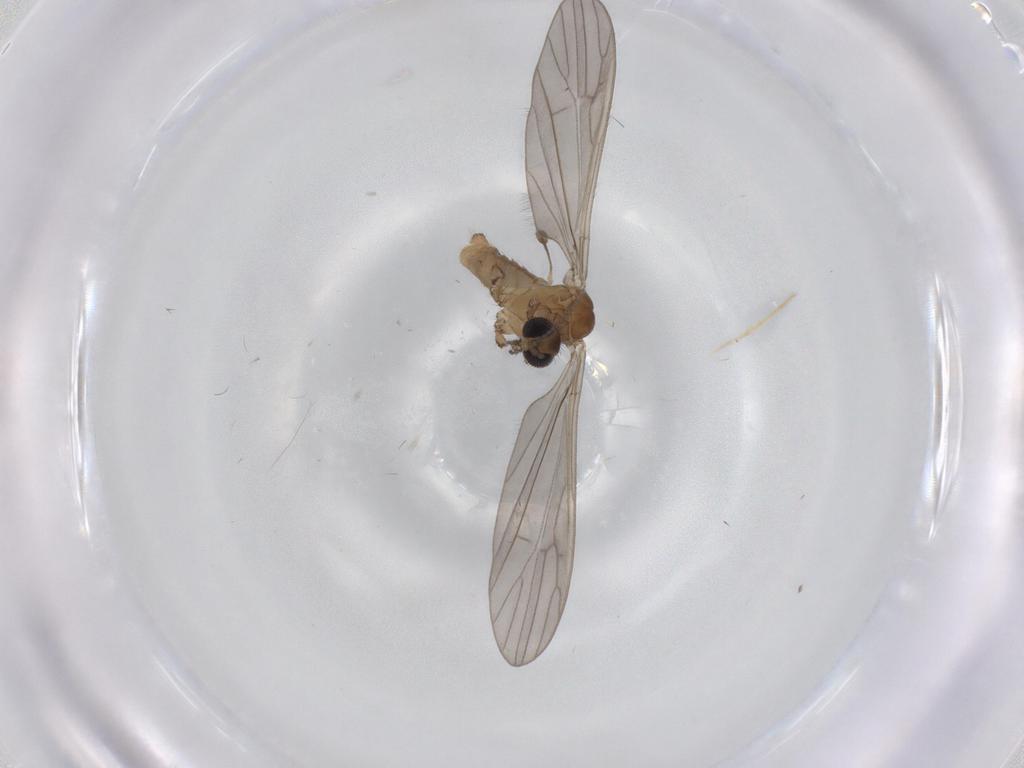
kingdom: Animalia
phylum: Arthropoda
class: Insecta
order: Diptera
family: Limoniidae
